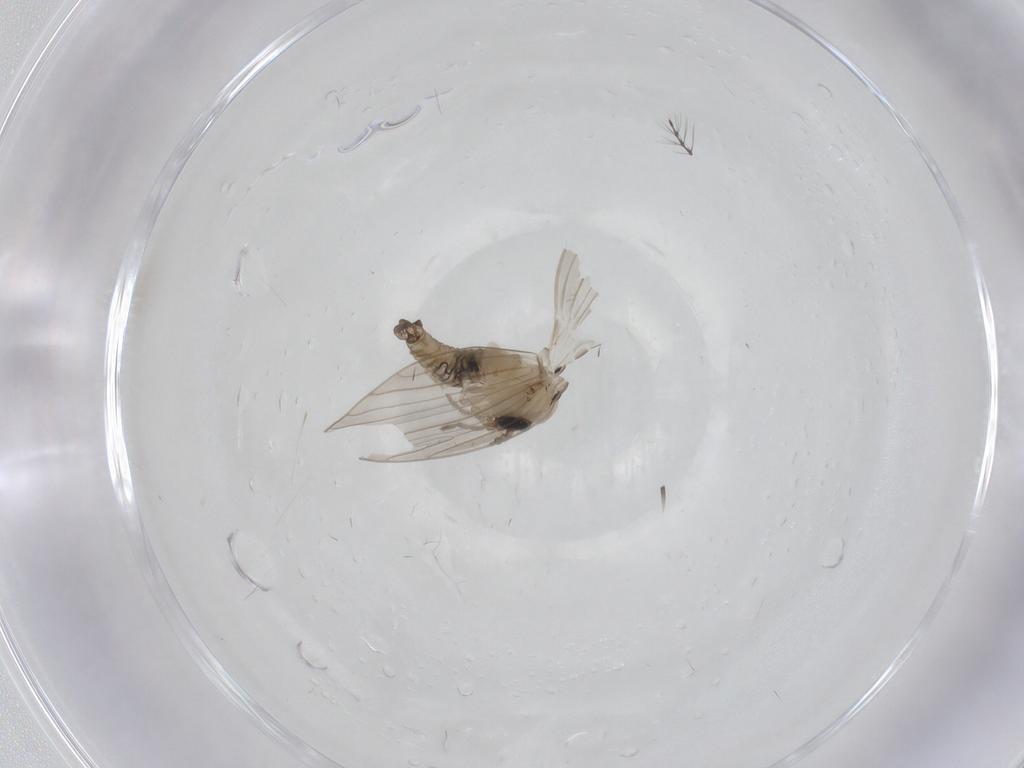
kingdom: Animalia
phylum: Arthropoda
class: Insecta
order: Diptera
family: Psychodidae
